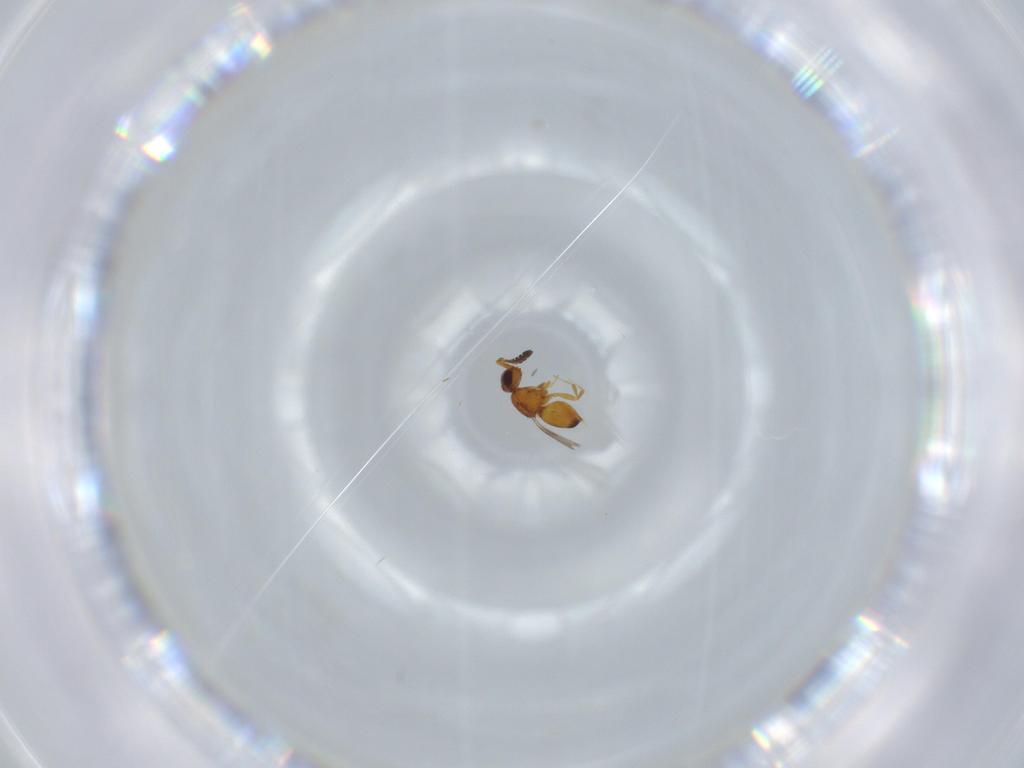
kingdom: Animalia
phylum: Arthropoda
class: Insecta
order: Hymenoptera
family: Ceraphronidae
